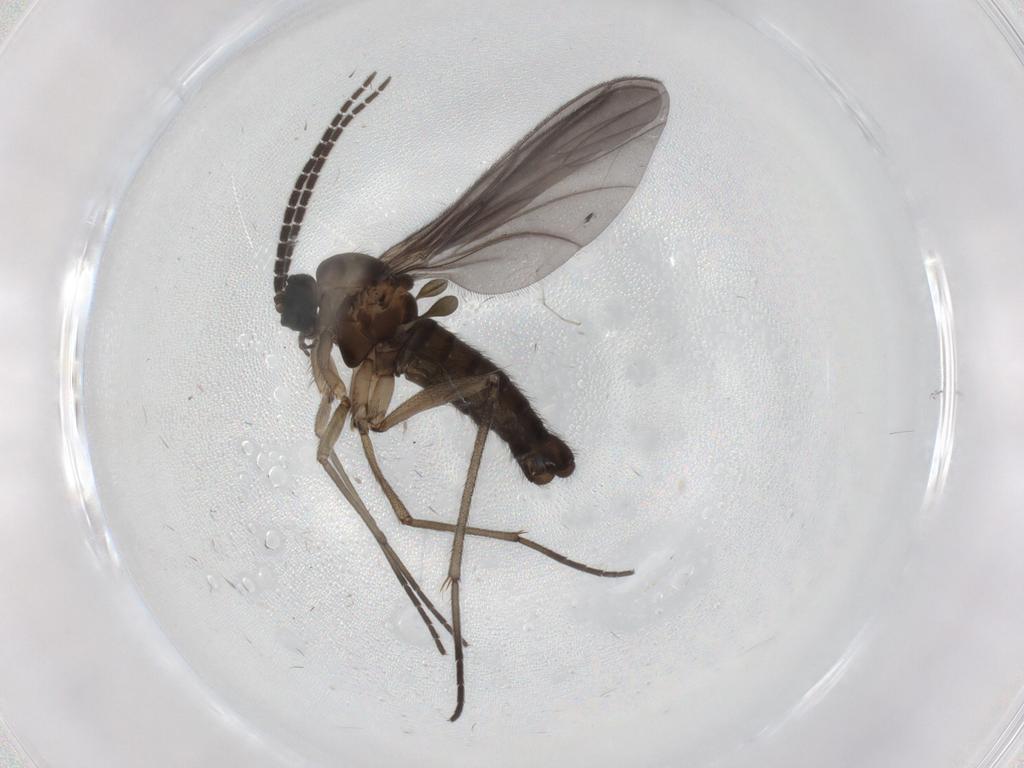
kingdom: Animalia
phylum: Arthropoda
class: Insecta
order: Diptera
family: Sciaridae
